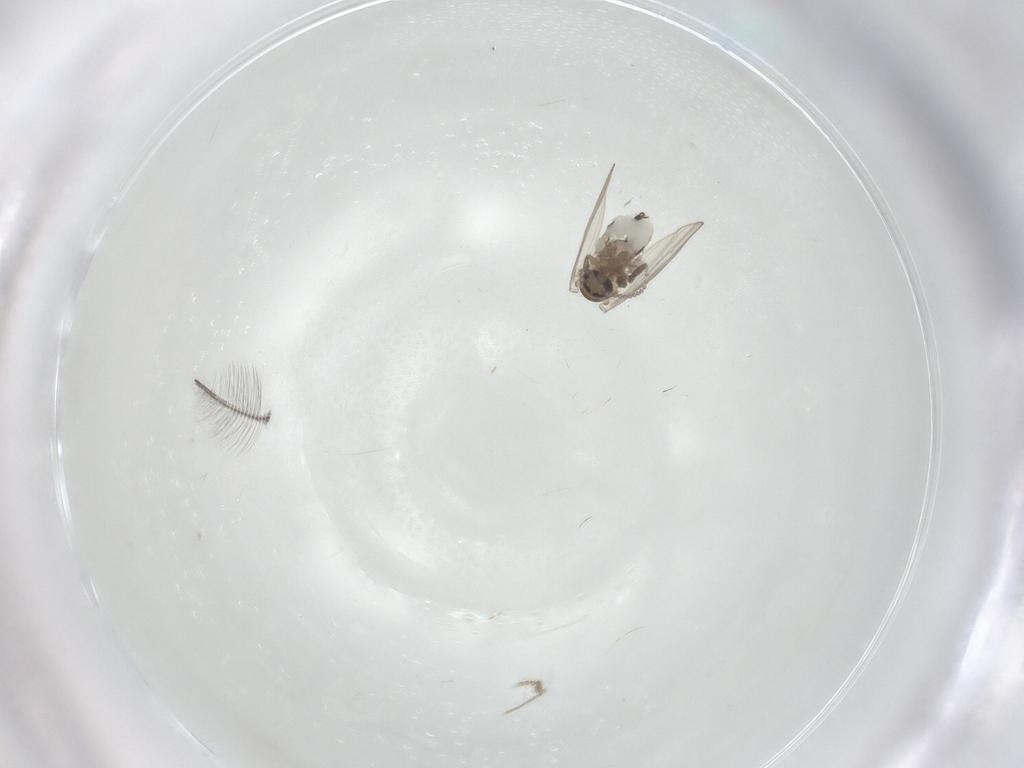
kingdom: Animalia
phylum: Arthropoda
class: Insecta
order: Diptera
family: Psychodidae
